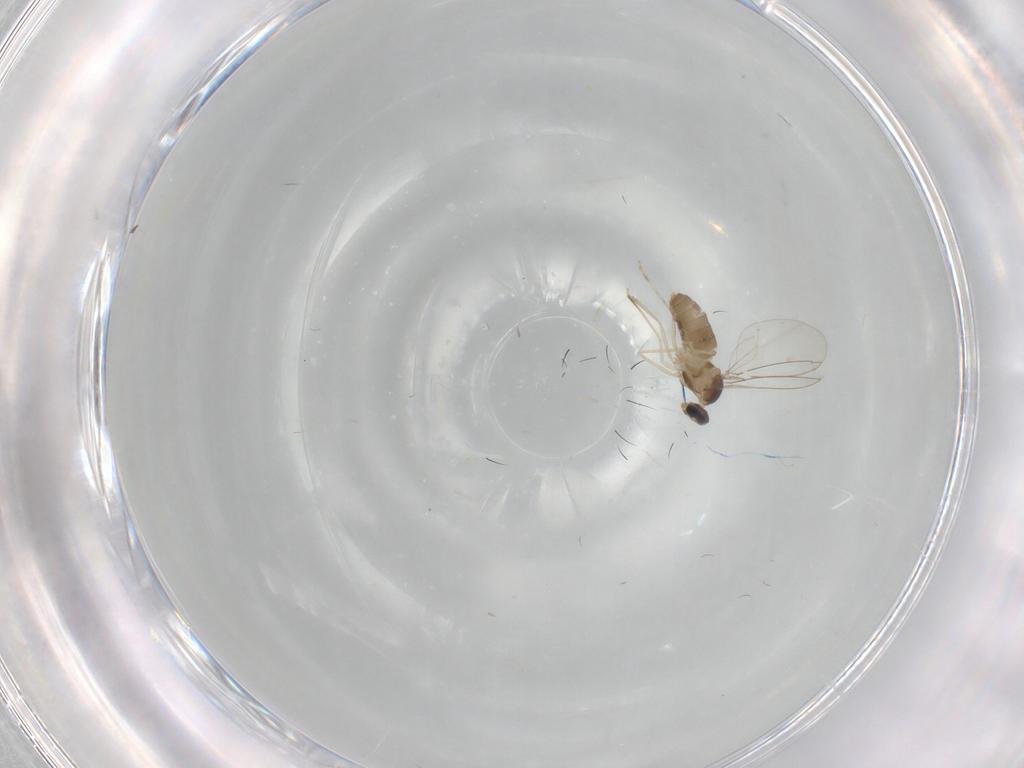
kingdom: Animalia
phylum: Arthropoda
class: Insecta
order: Diptera
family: Cecidomyiidae
